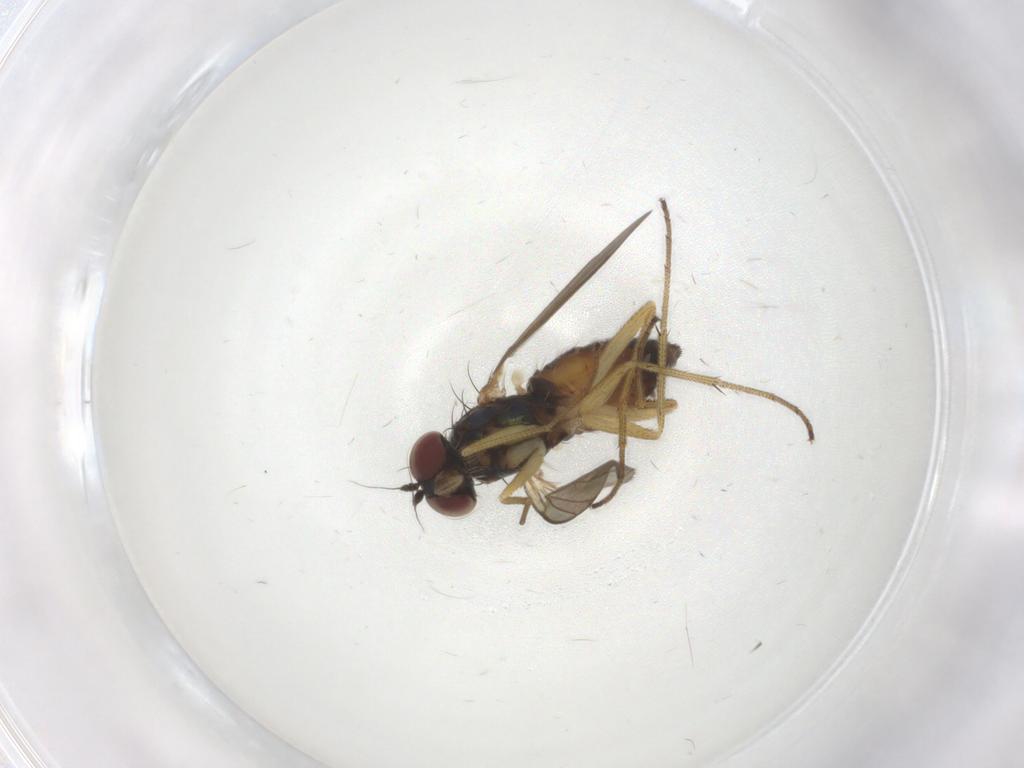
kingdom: Animalia
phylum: Arthropoda
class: Insecta
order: Diptera
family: Dolichopodidae
